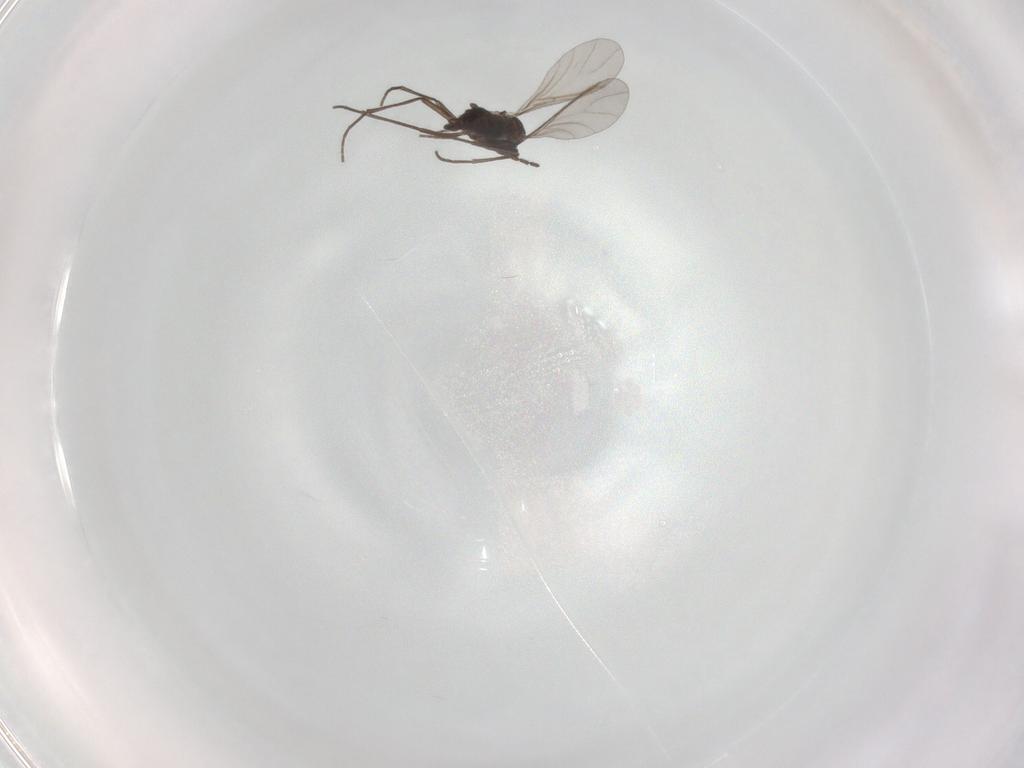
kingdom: Animalia
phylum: Arthropoda
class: Insecta
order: Diptera
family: Sciaridae
